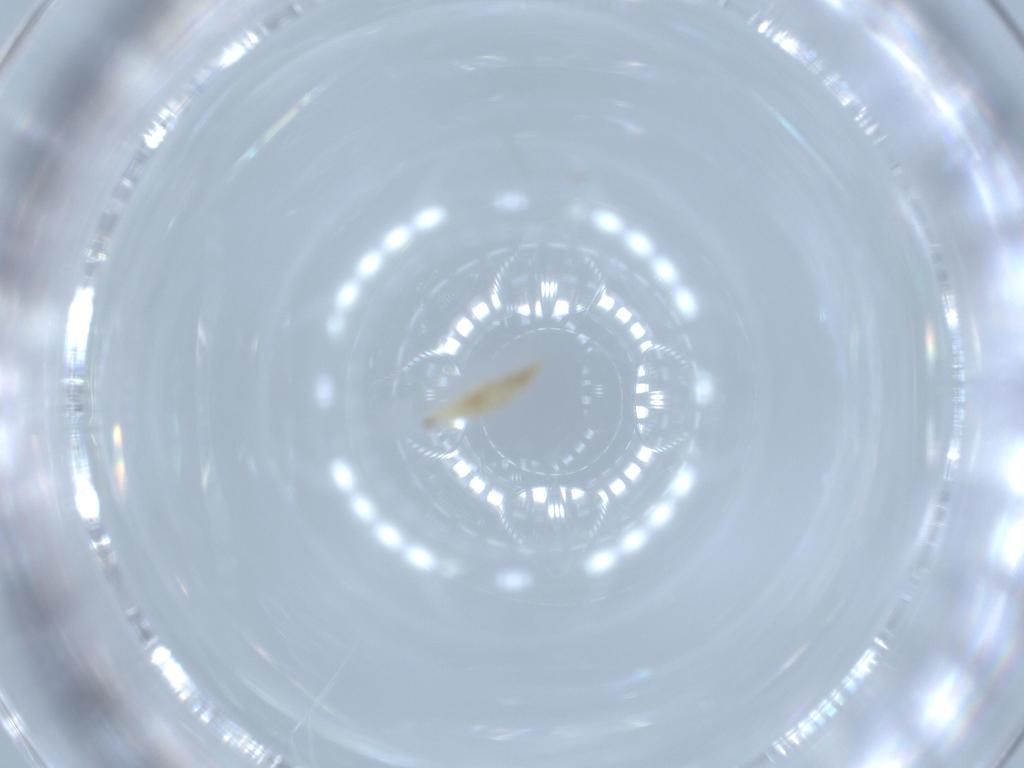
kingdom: Animalia
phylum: Arthropoda
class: Insecta
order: Diptera
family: Cecidomyiidae
